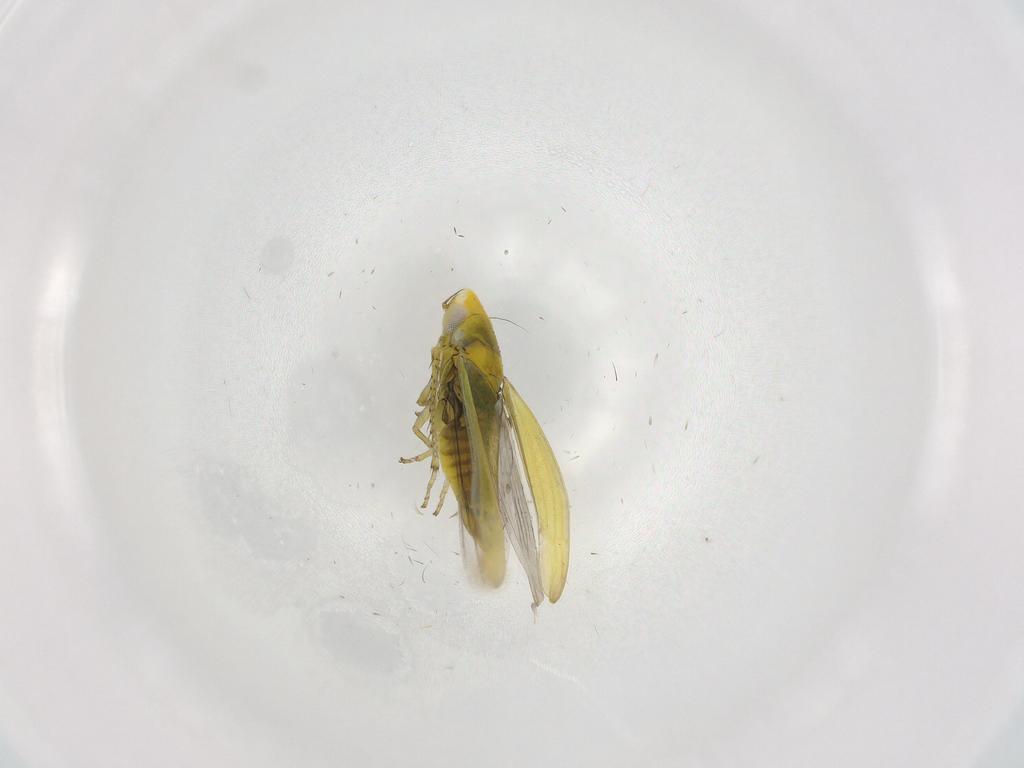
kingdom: Animalia
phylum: Arthropoda
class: Insecta
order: Hemiptera
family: Cicadellidae
